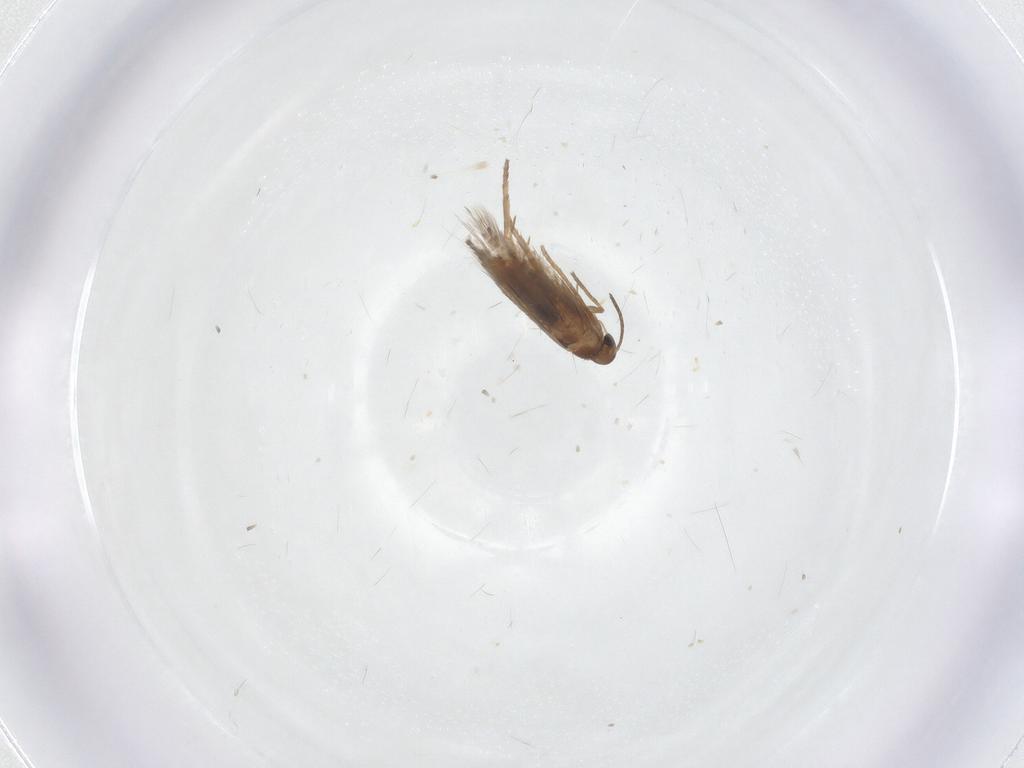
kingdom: Animalia
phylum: Arthropoda
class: Insecta
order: Lepidoptera
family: Heliozelidae
